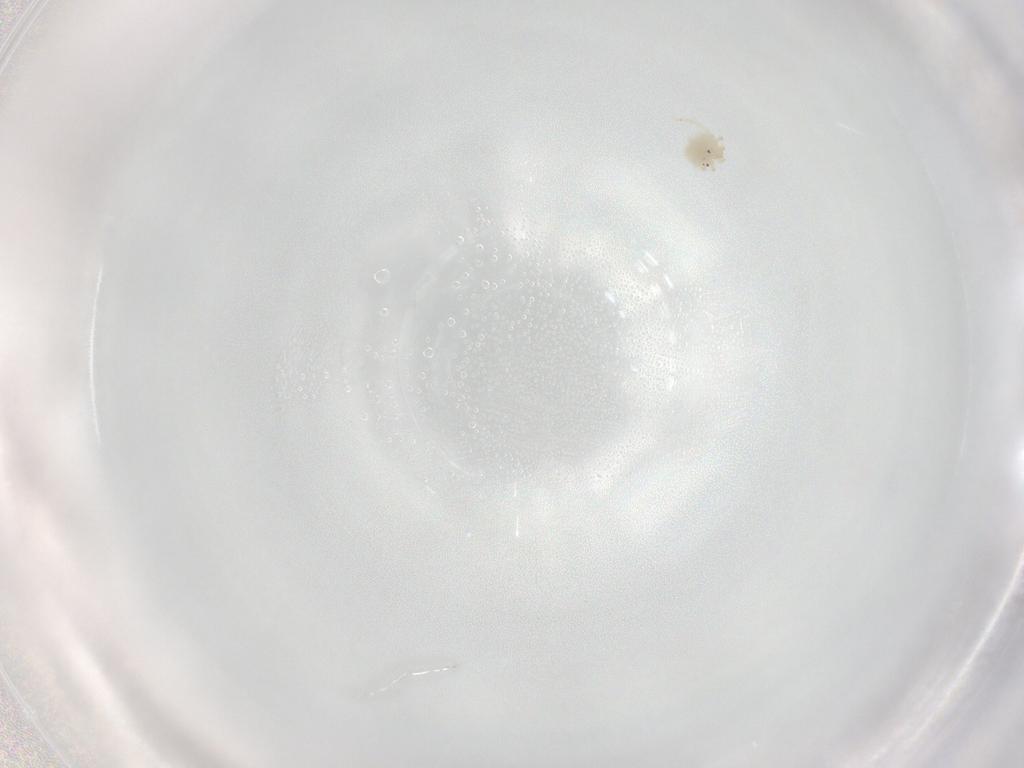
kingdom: Animalia
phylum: Arthropoda
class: Arachnida
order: Trombidiformes
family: Sperchontidae
